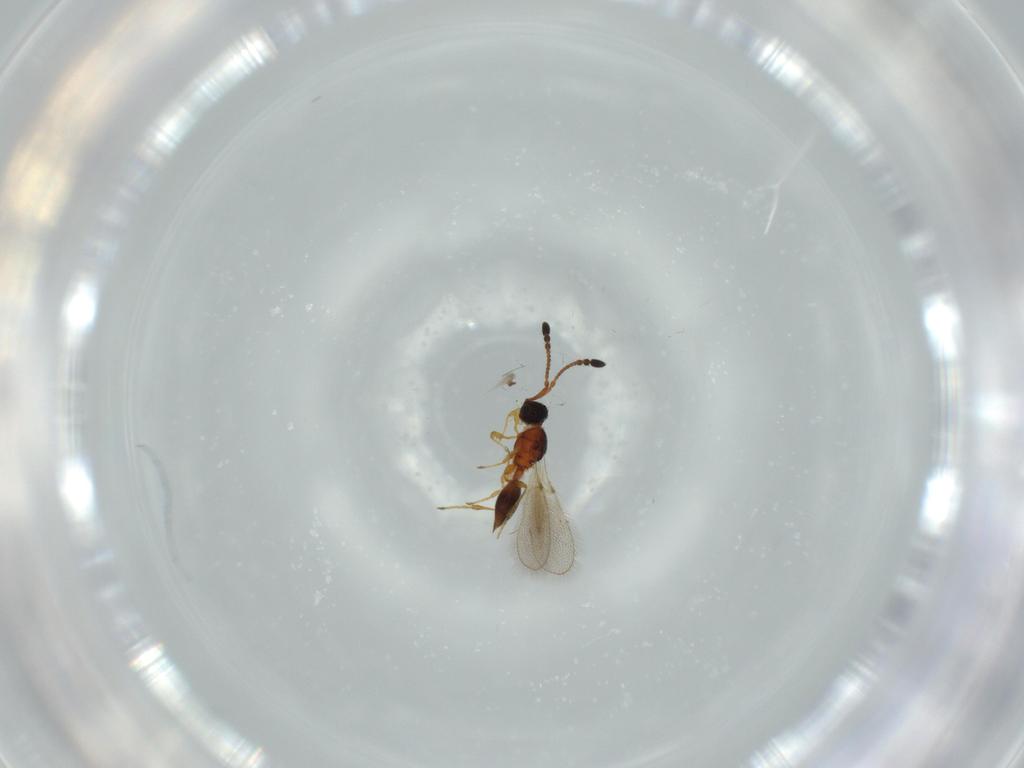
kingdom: Animalia
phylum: Arthropoda
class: Insecta
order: Hymenoptera
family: Diapriidae
